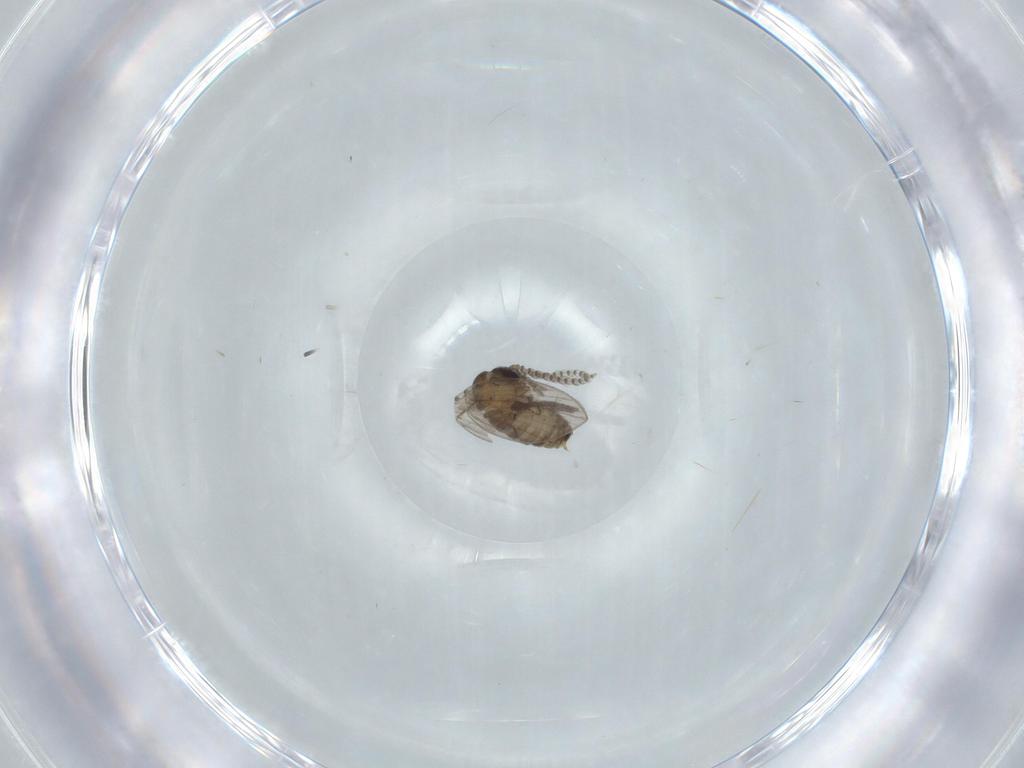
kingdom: Animalia
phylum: Arthropoda
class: Insecta
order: Diptera
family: Psychodidae
